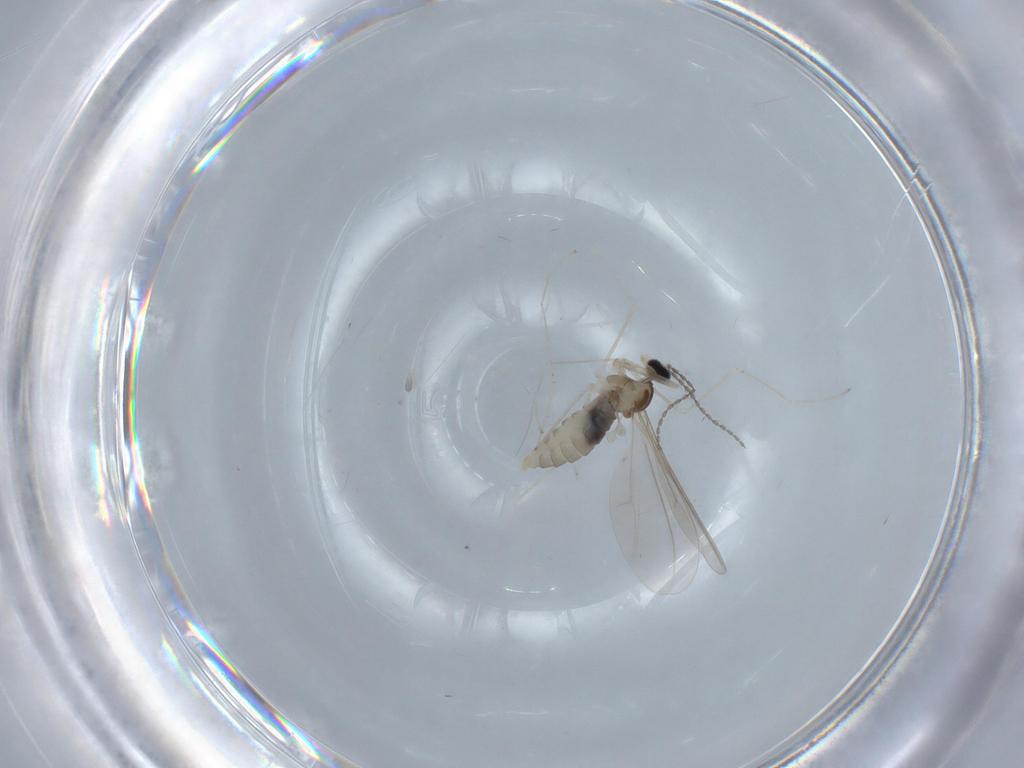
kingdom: Animalia
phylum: Arthropoda
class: Insecta
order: Diptera
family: Cecidomyiidae
